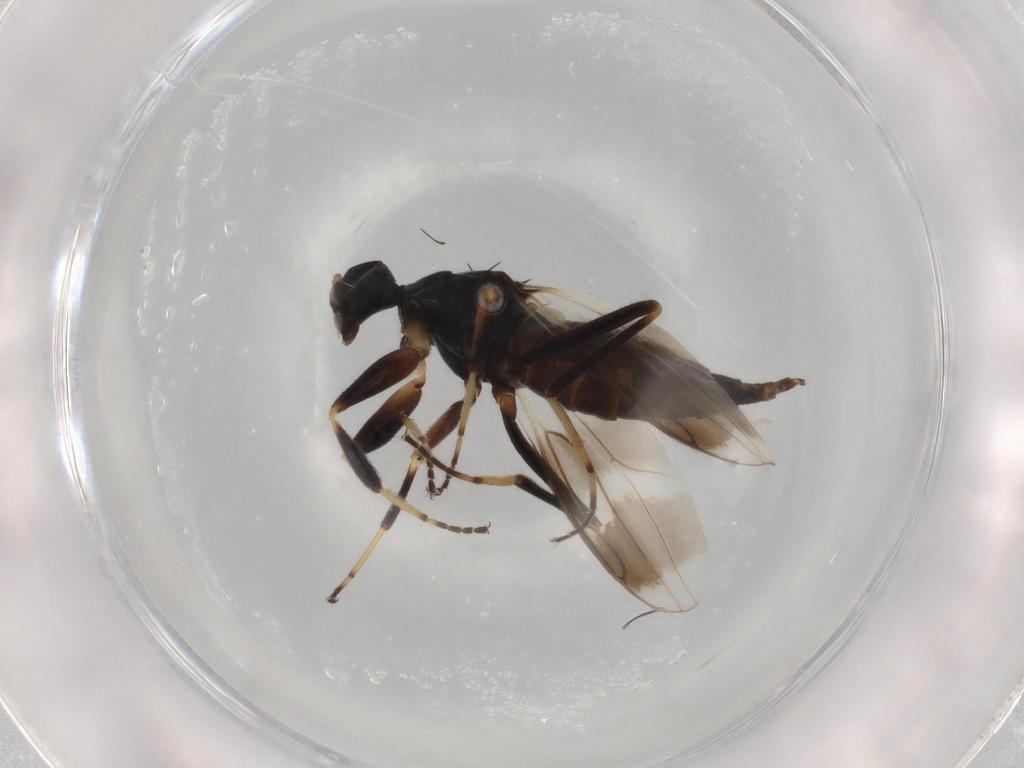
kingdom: Animalia
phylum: Arthropoda
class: Insecta
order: Diptera
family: Hybotidae
